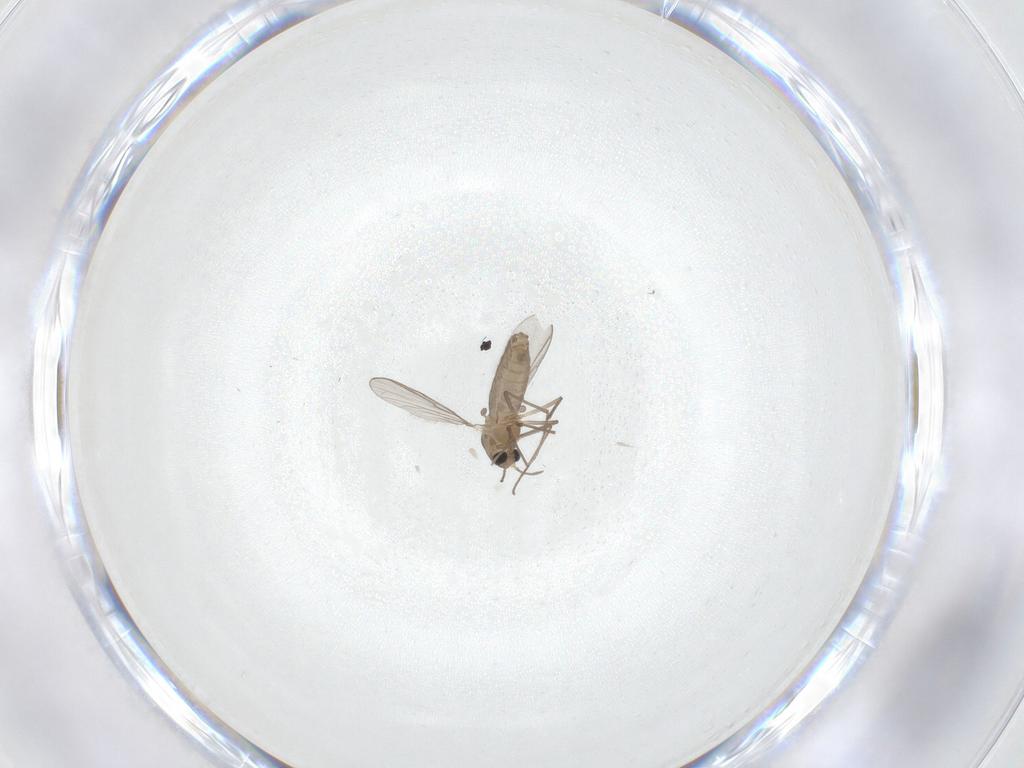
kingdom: Animalia
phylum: Arthropoda
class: Insecta
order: Diptera
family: Chironomidae
